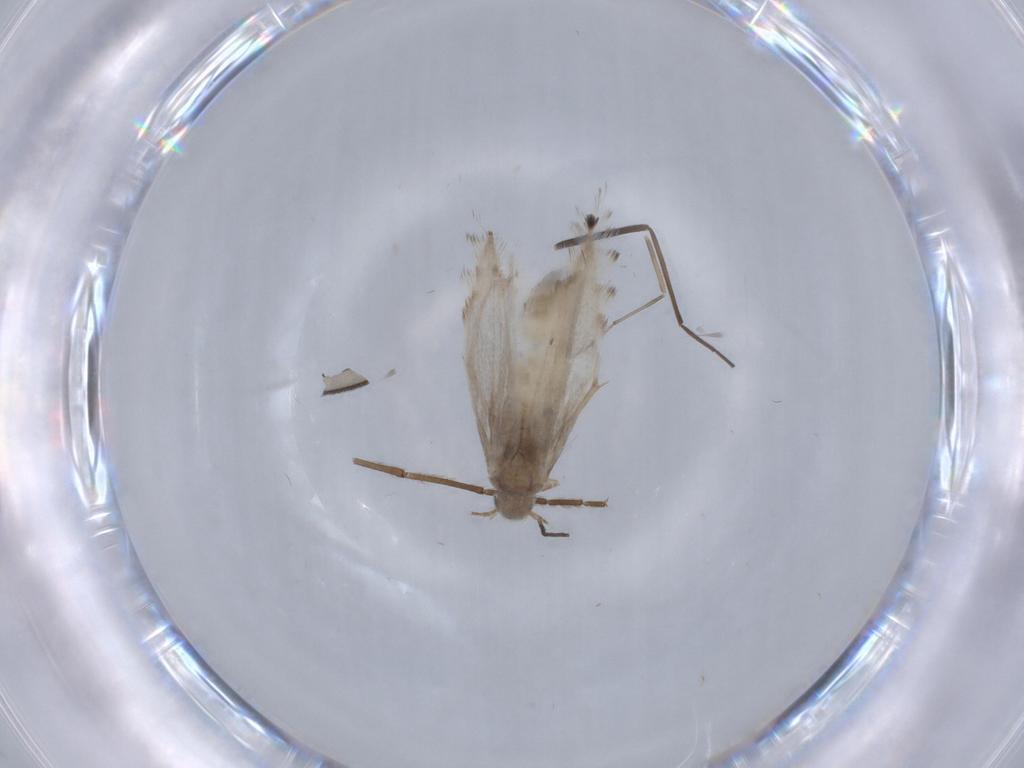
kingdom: Animalia
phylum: Arthropoda
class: Insecta
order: Lepidoptera
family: Gracillariidae
